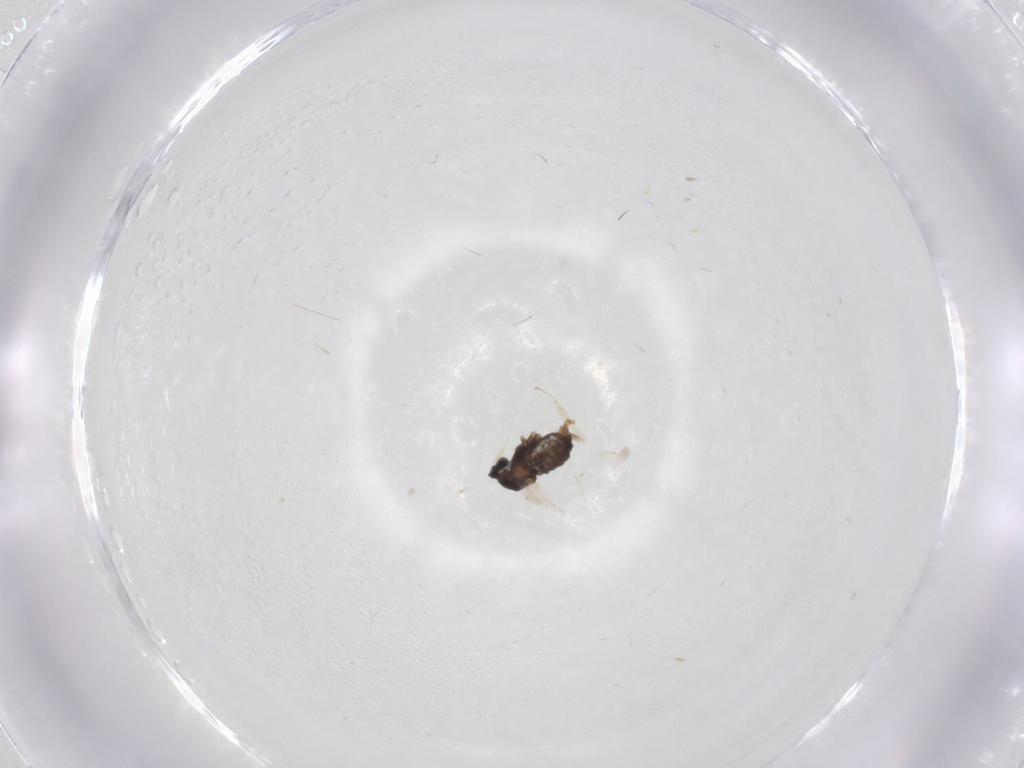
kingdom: Animalia
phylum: Arthropoda
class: Insecta
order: Diptera
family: Cecidomyiidae
